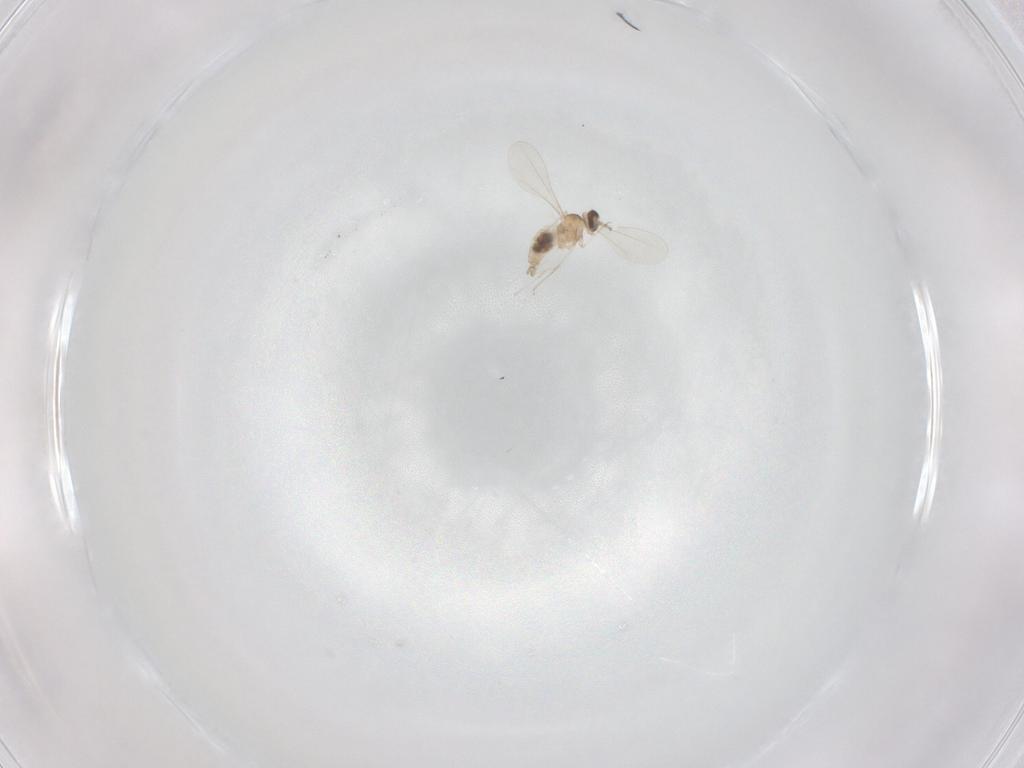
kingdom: Animalia
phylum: Arthropoda
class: Insecta
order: Diptera
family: Cecidomyiidae
